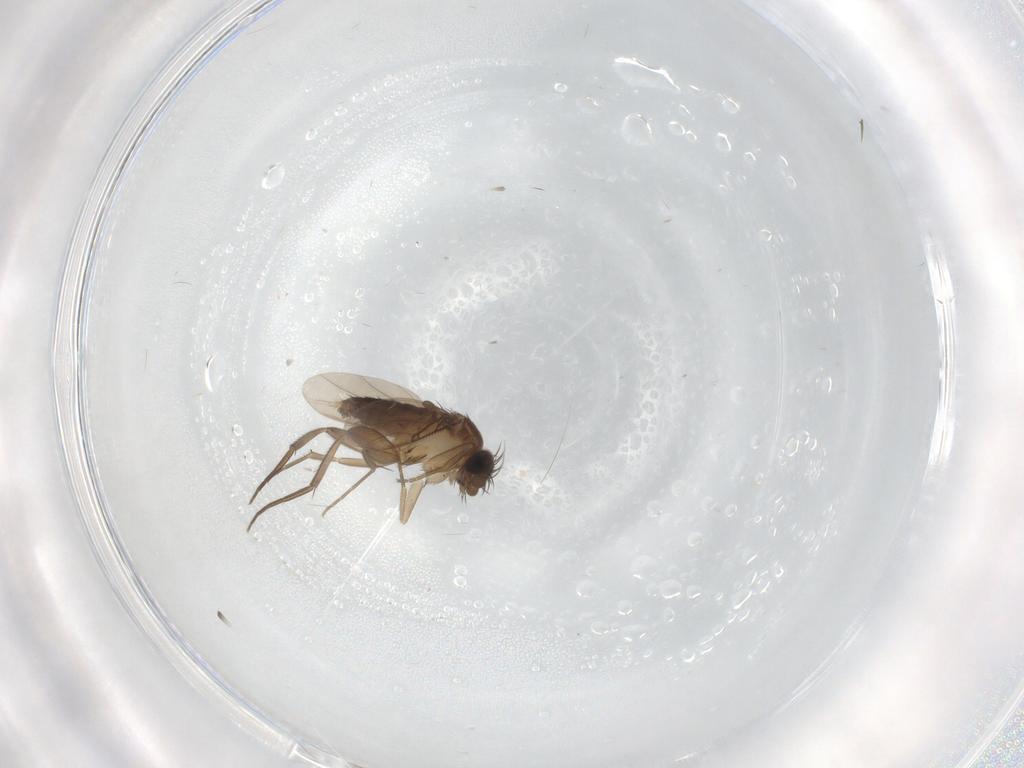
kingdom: Animalia
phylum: Arthropoda
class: Insecta
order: Diptera
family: Phoridae
